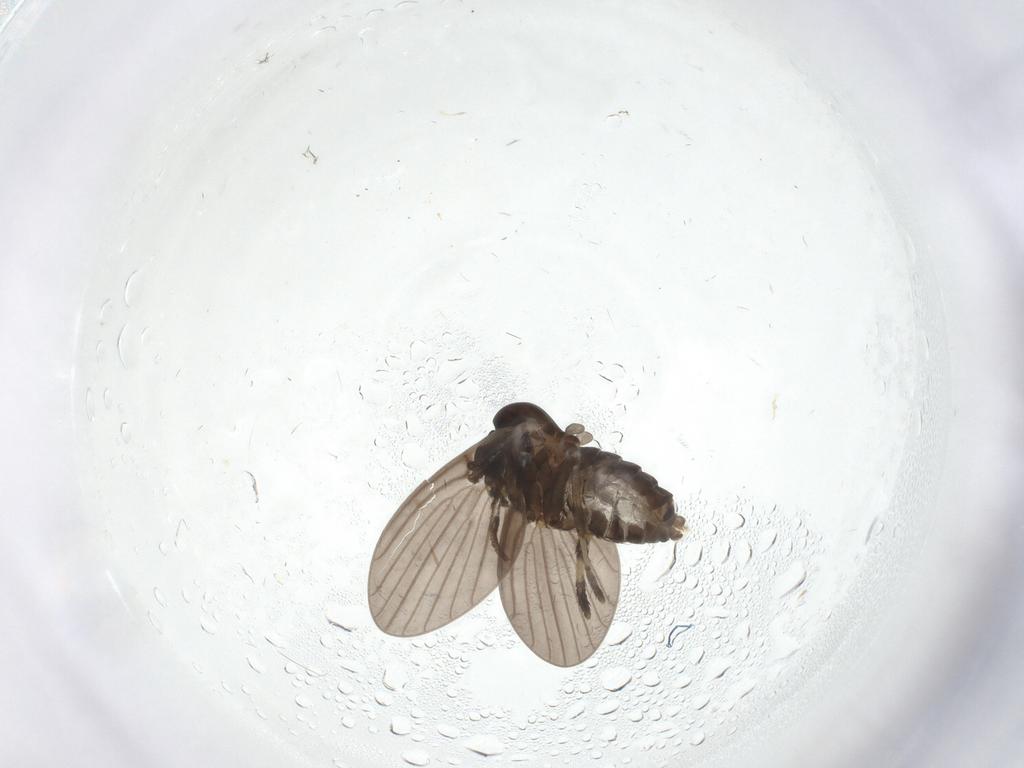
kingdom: Animalia
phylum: Arthropoda
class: Insecta
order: Diptera
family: Psychodidae
